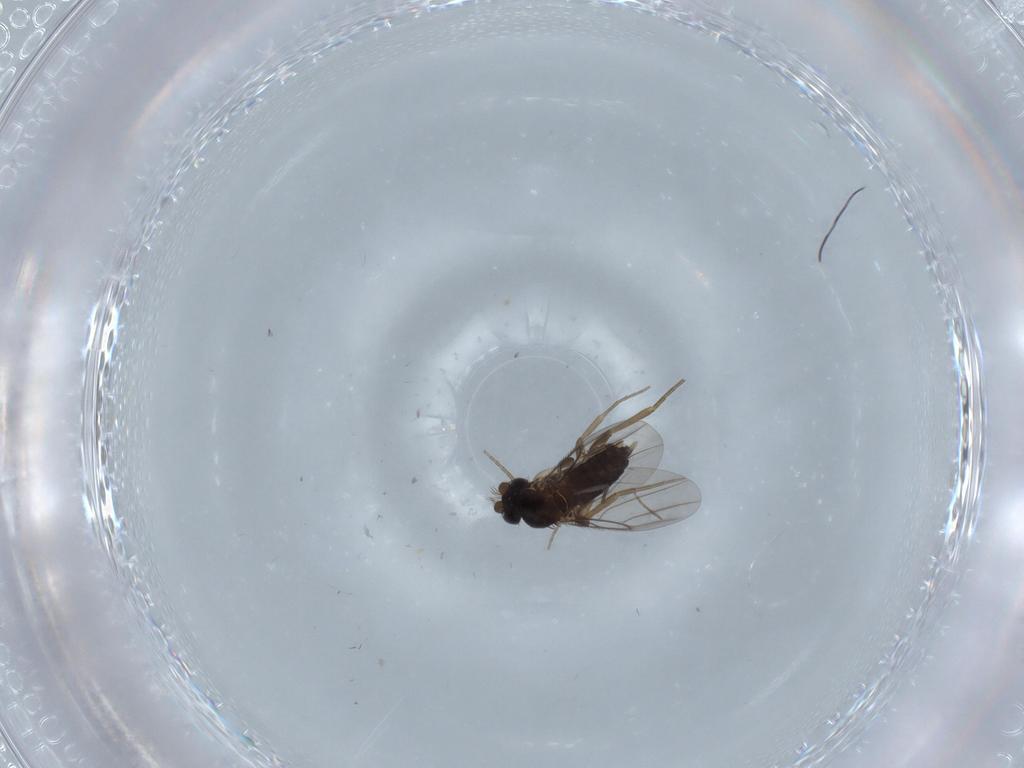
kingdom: Animalia
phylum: Arthropoda
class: Insecta
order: Diptera
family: Phoridae
